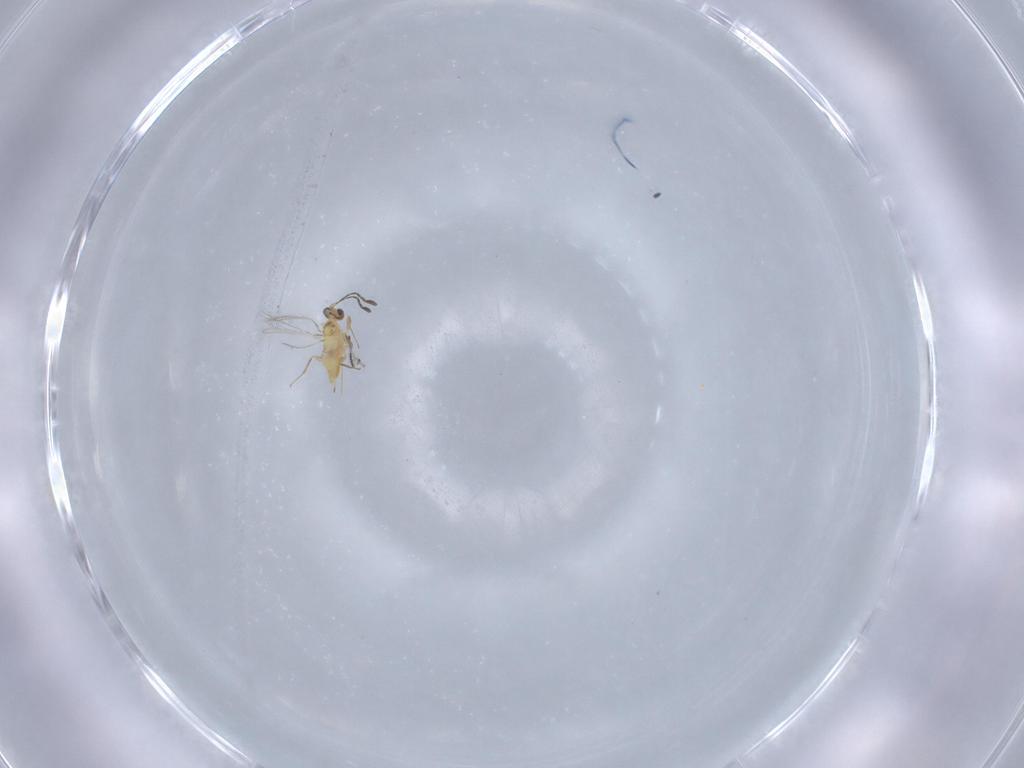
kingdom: Animalia
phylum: Arthropoda
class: Insecta
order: Hymenoptera
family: Mymaridae
